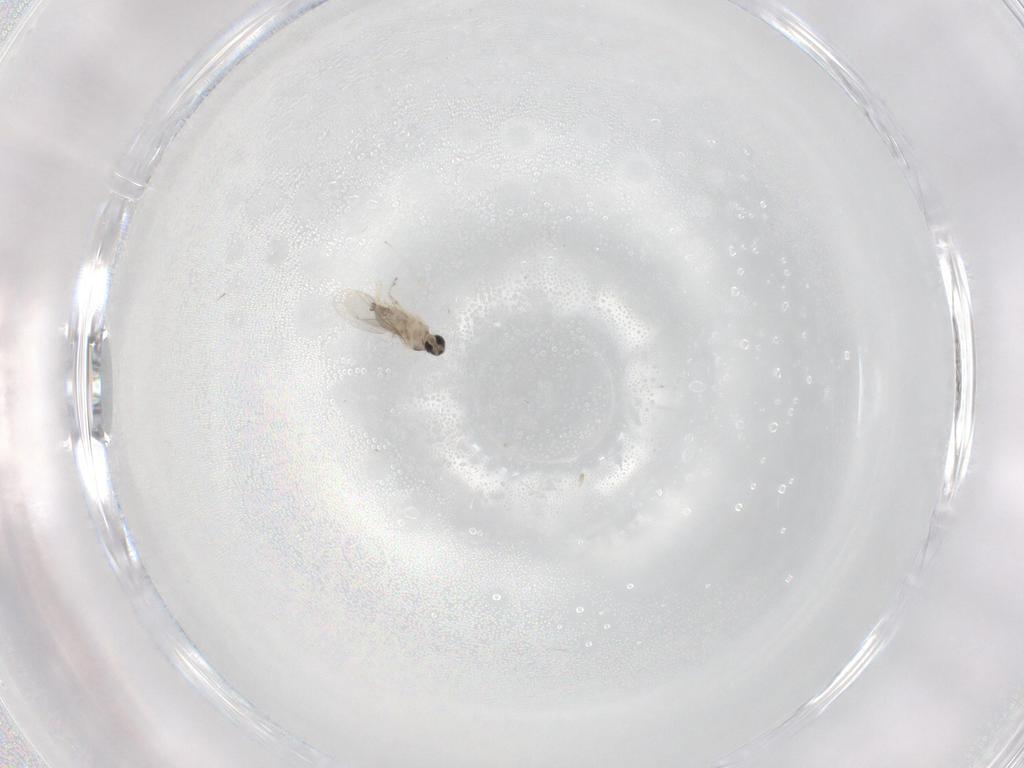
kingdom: Animalia
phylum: Arthropoda
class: Insecta
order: Diptera
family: Cecidomyiidae
